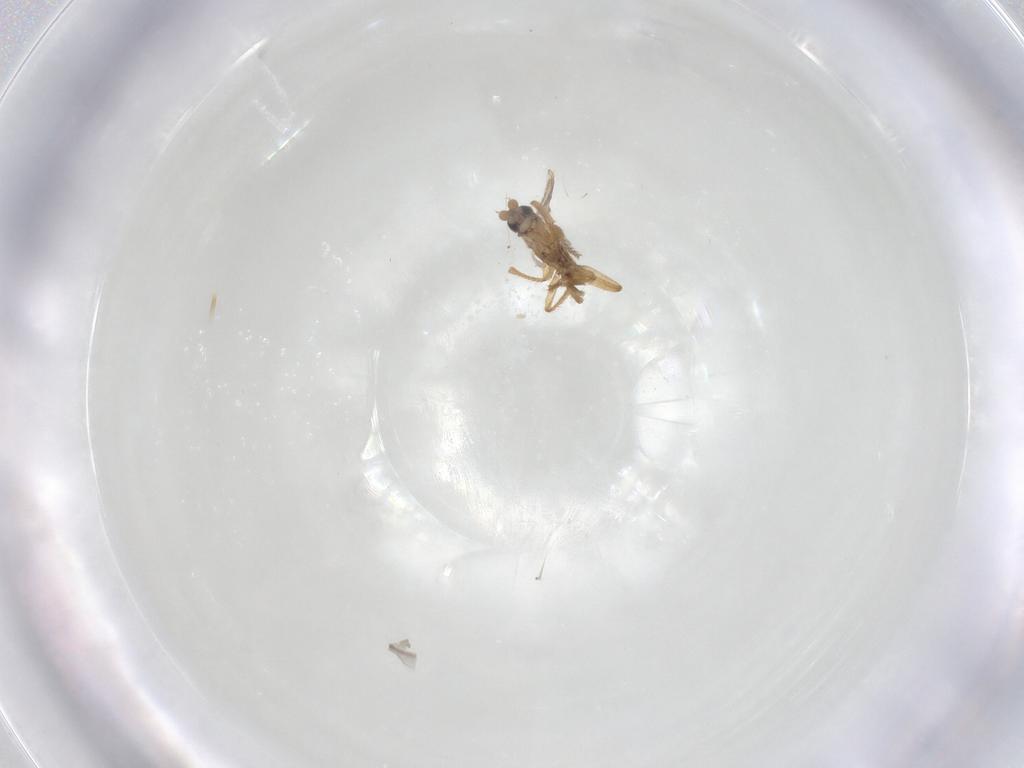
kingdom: Animalia
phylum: Arthropoda
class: Insecta
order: Diptera
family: Phoridae
